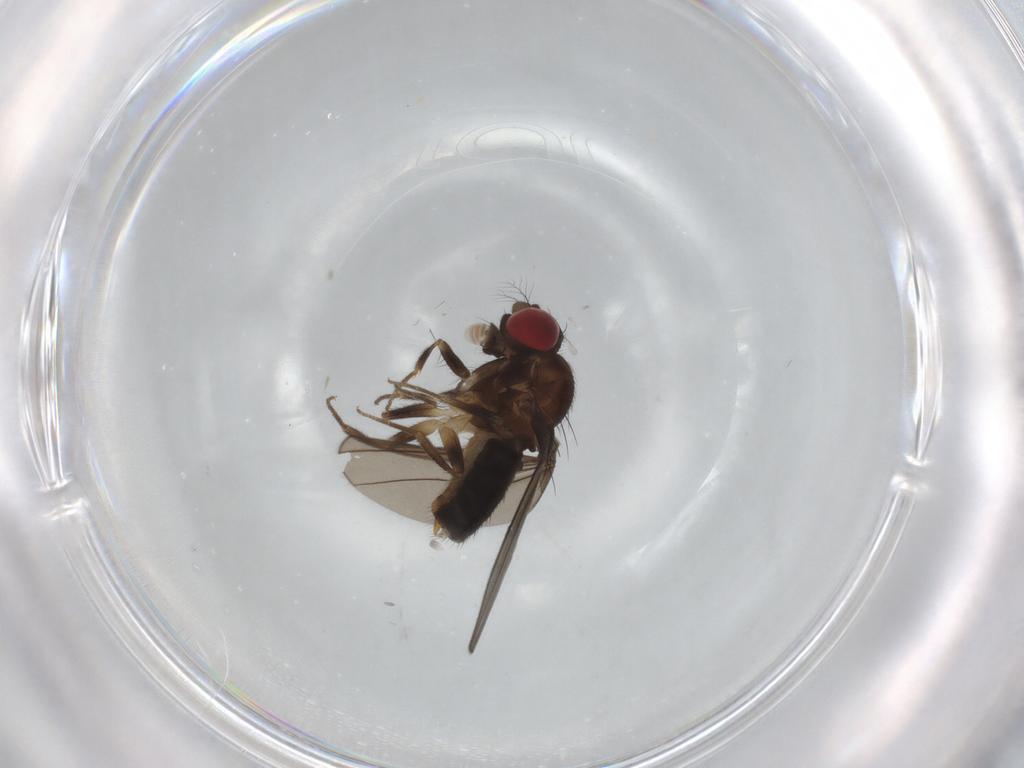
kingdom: Animalia
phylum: Arthropoda
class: Insecta
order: Diptera
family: Drosophilidae
